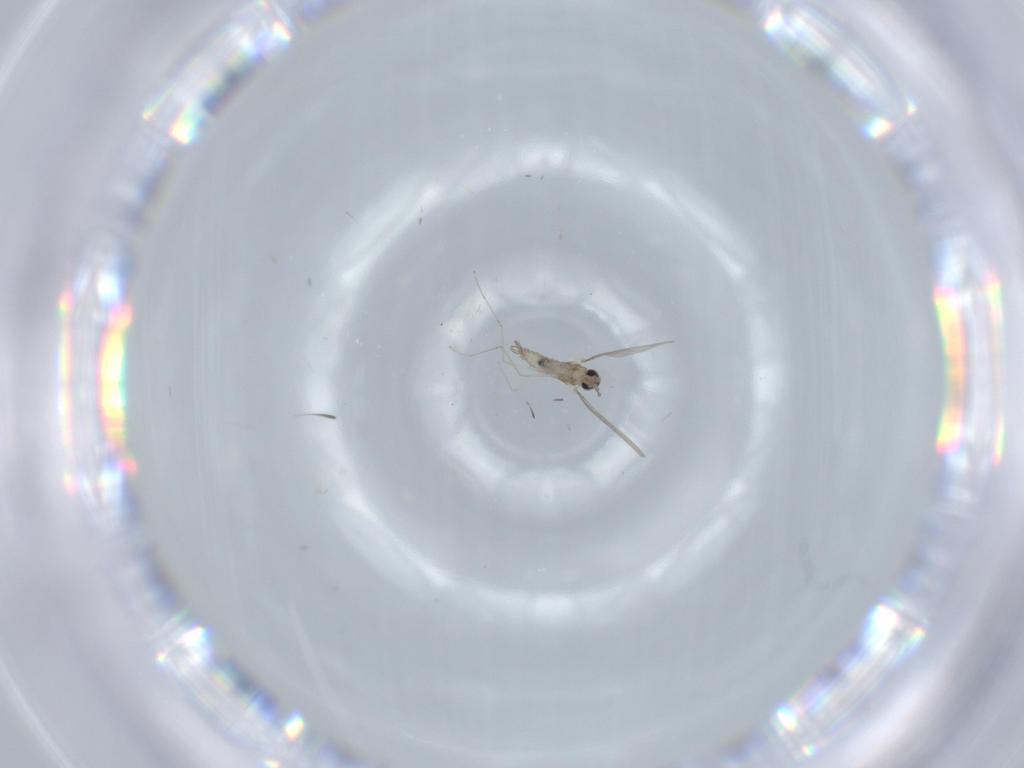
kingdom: Animalia
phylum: Arthropoda
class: Insecta
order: Diptera
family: Cecidomyiidae
